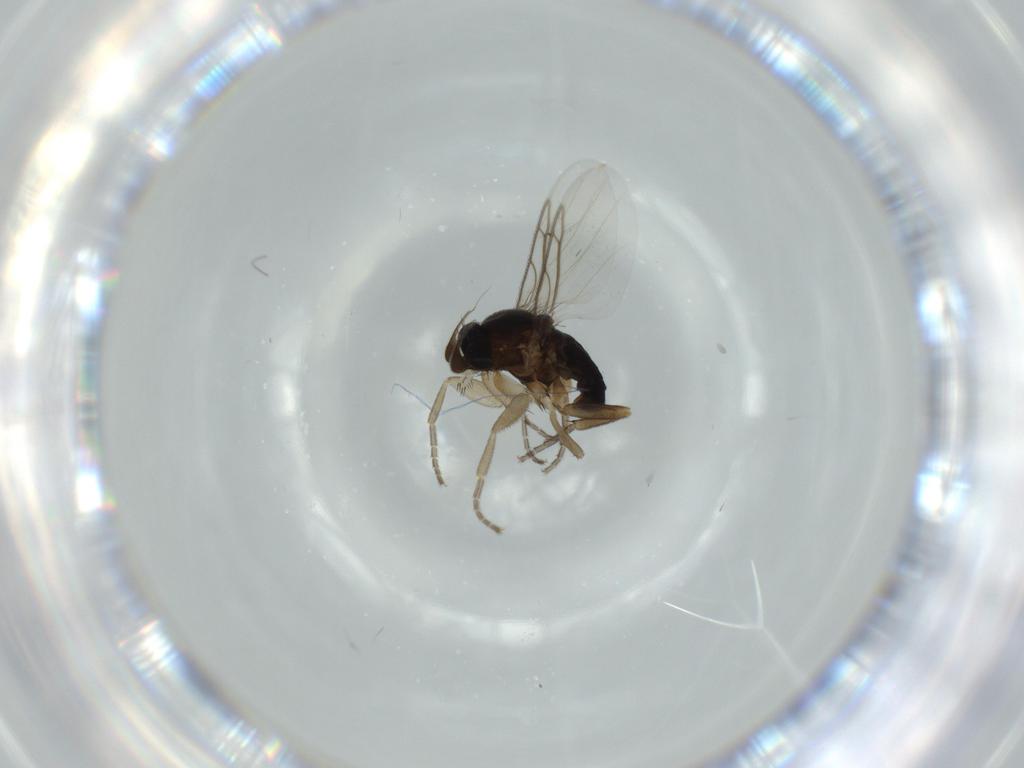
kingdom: Animalia
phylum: Arthropoda
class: Insecta
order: Diptera
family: Phoridae
